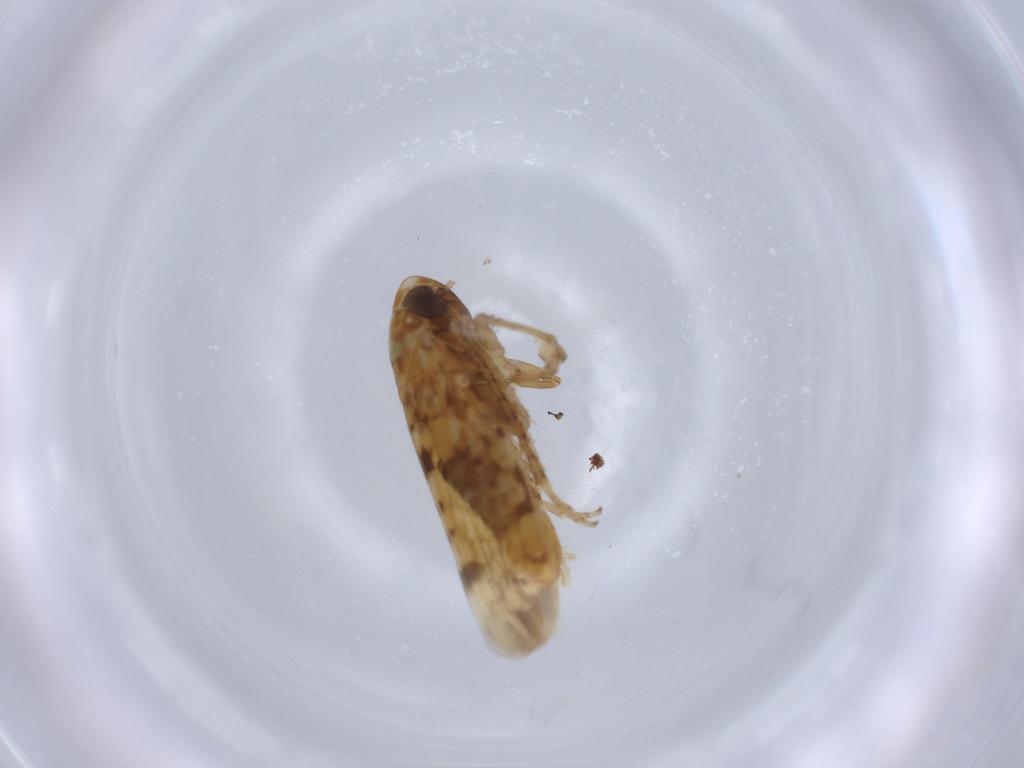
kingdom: Animalia
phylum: Arthropoda
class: Insecta
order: Hemiptera
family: Cicadellidae
